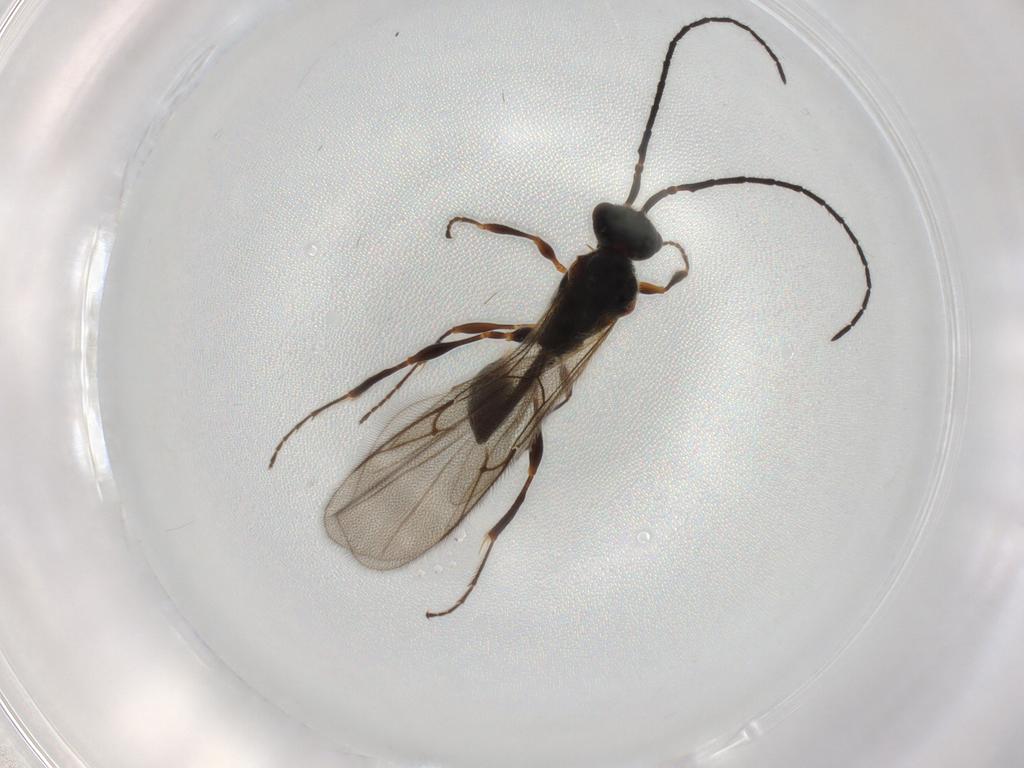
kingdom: Animalia
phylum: Arthropoda
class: Insecta
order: Hymenoptera
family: Diapriidae
